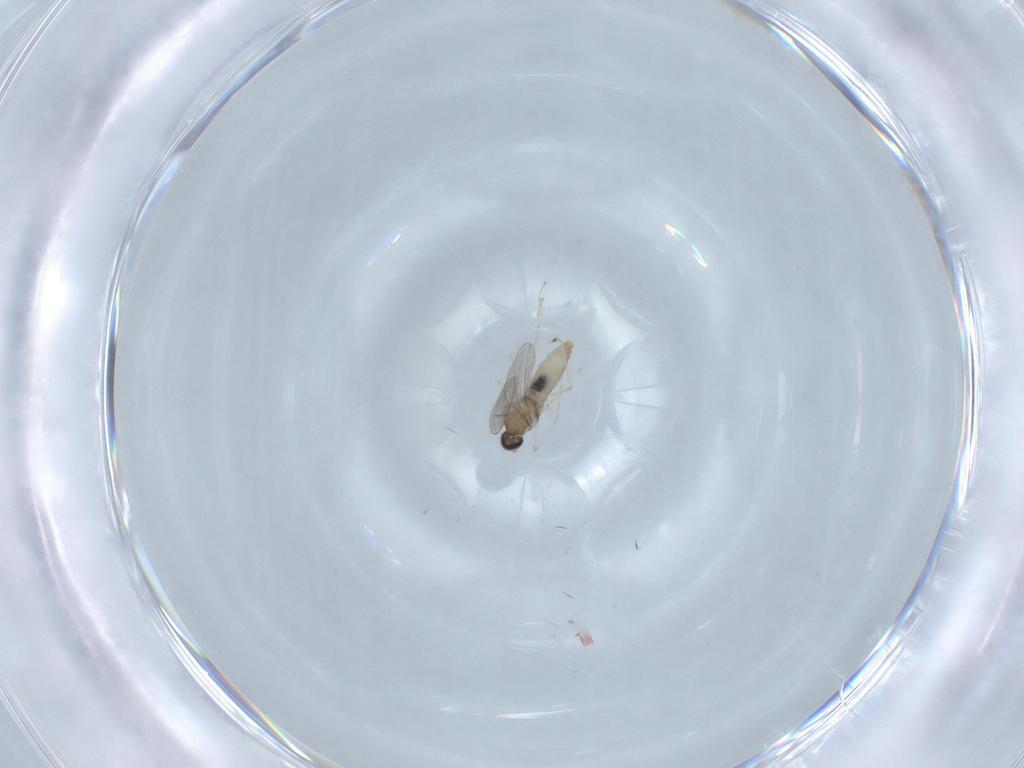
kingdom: Animalia
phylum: Arthropoda
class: Insecta
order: Diptera
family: Cecidomyiidae
